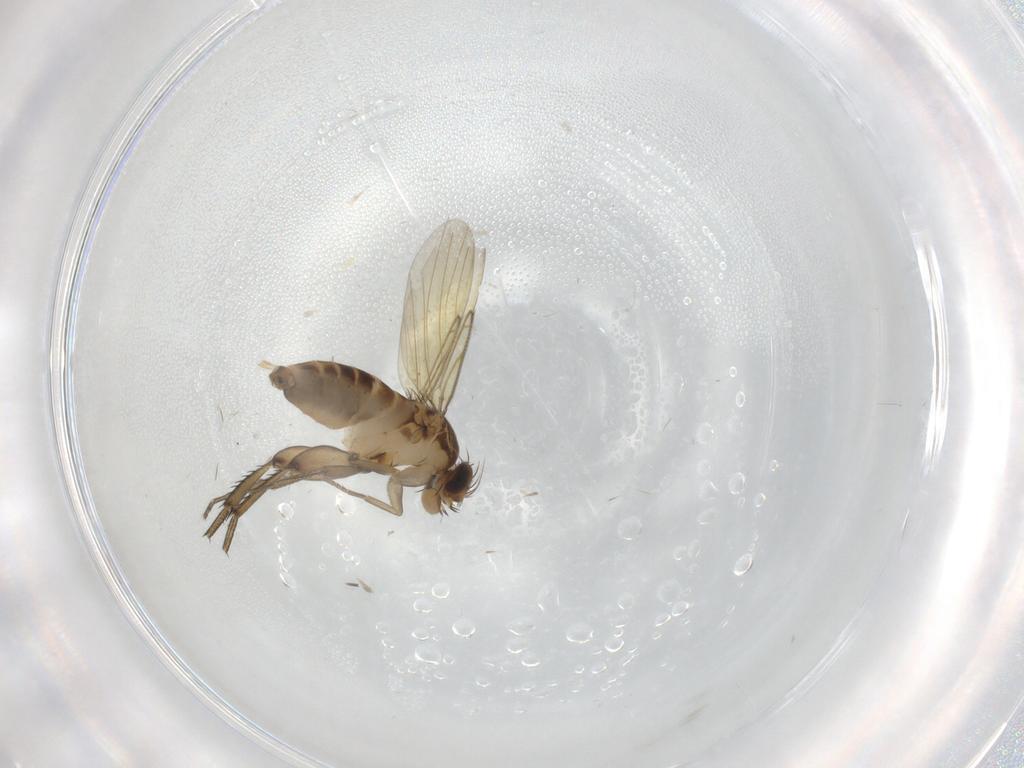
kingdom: Animalia
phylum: Arthropoda
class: Insecta
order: Diptera
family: Phoridae
